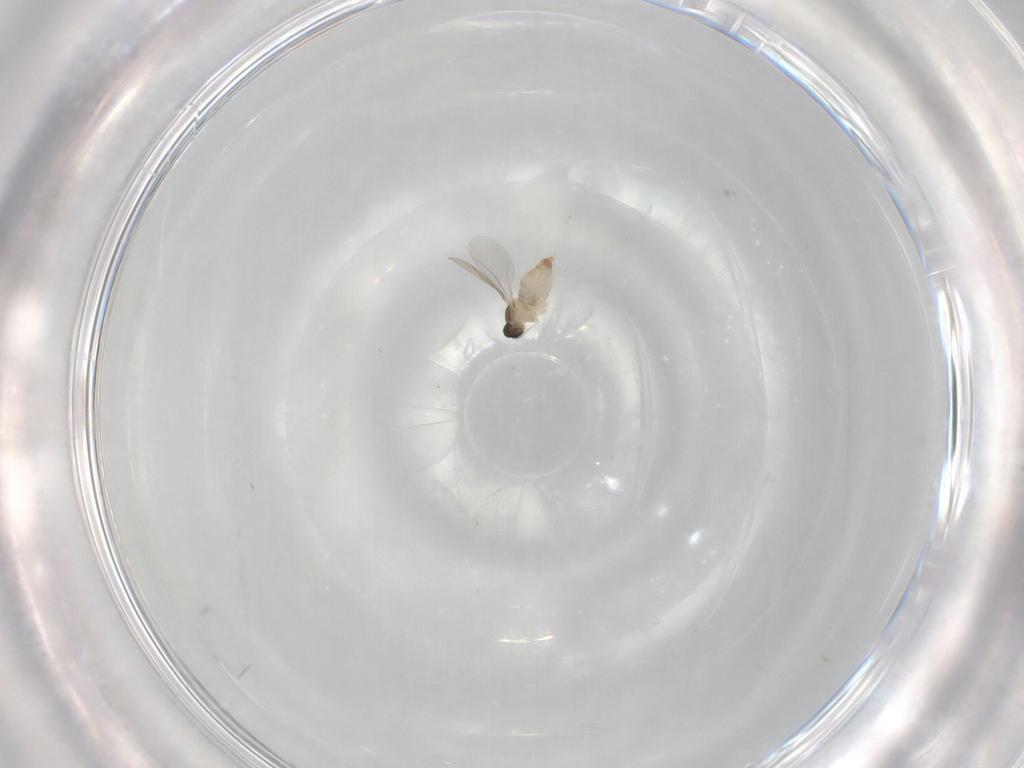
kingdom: Animalia
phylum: Arthropoda
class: Insecta
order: Diptera
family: Cecidomyiidae
